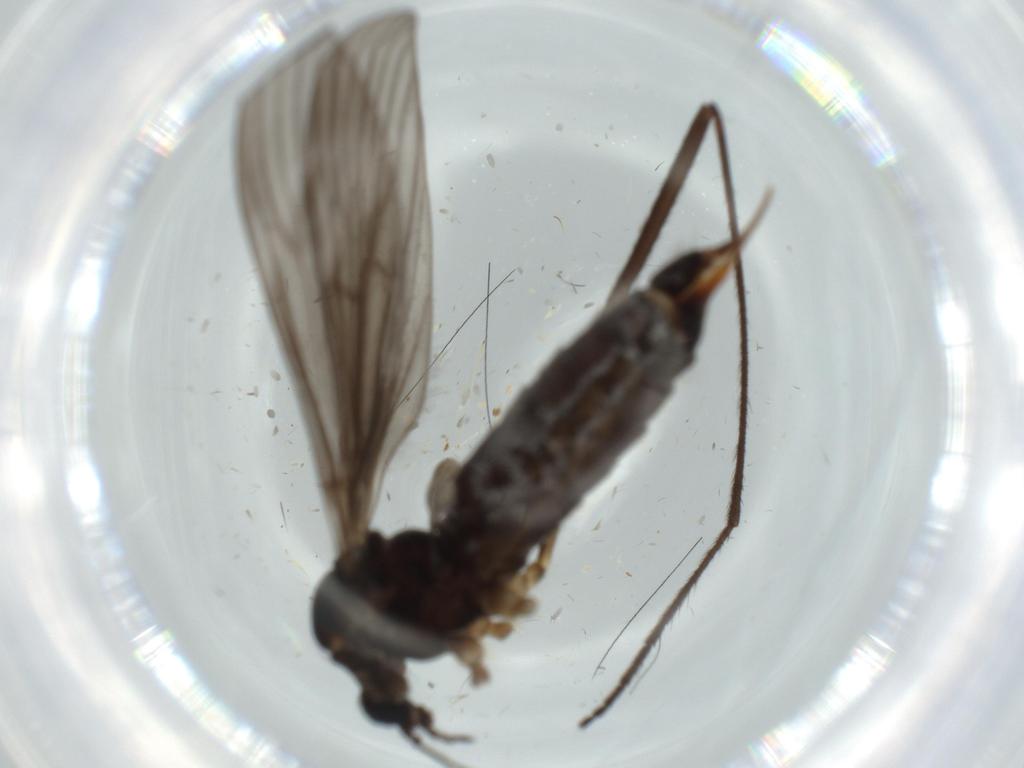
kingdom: Animalia
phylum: Arthropoda
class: Insecta
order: Diptera
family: Limoniidae
